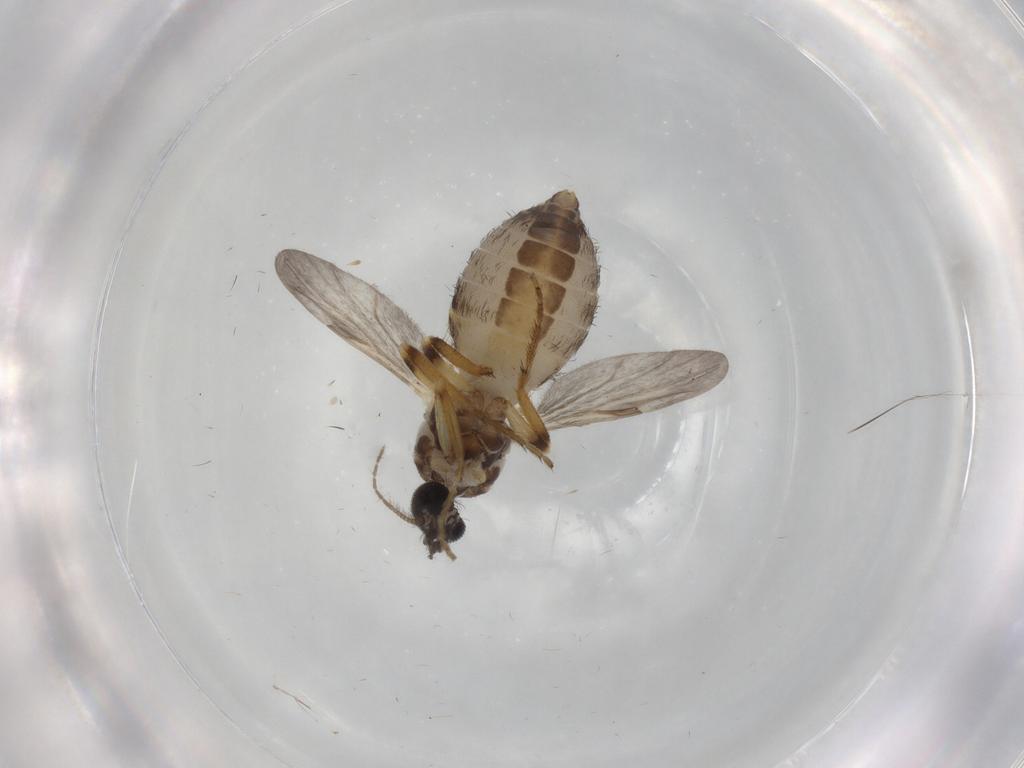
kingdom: Animalia
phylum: Arthropoda
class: Insecta
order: Diptera
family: Ceratopogonidae
